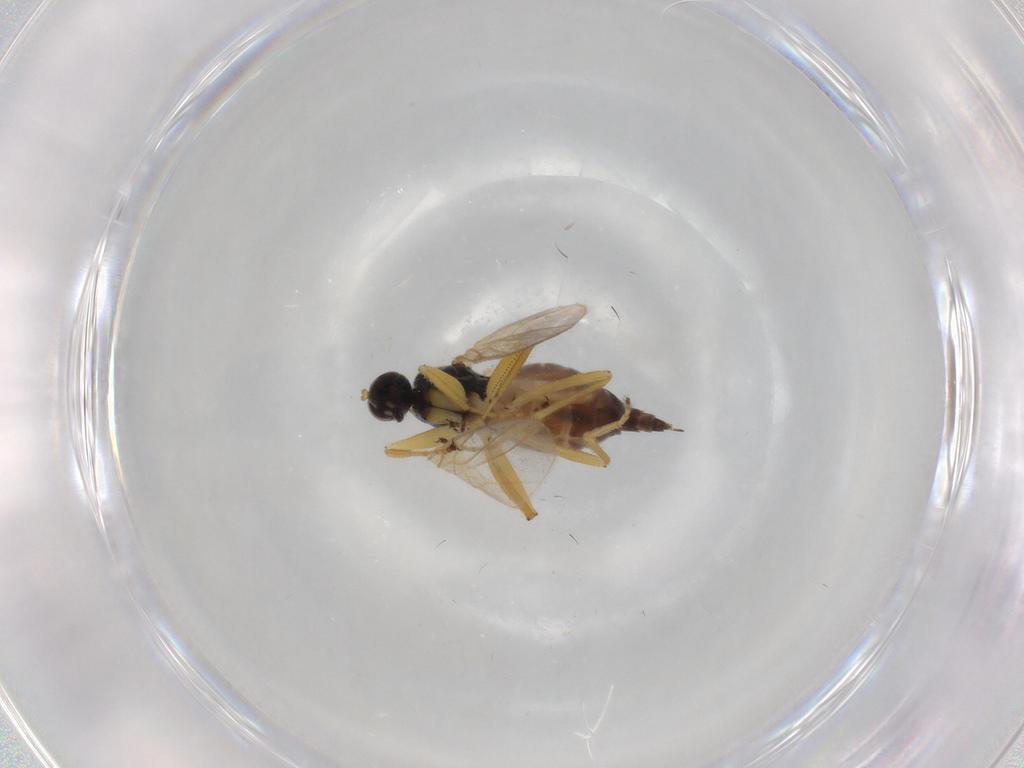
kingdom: Animalia
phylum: Arthropoda
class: Insecta
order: Diptera
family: Hybotidae
